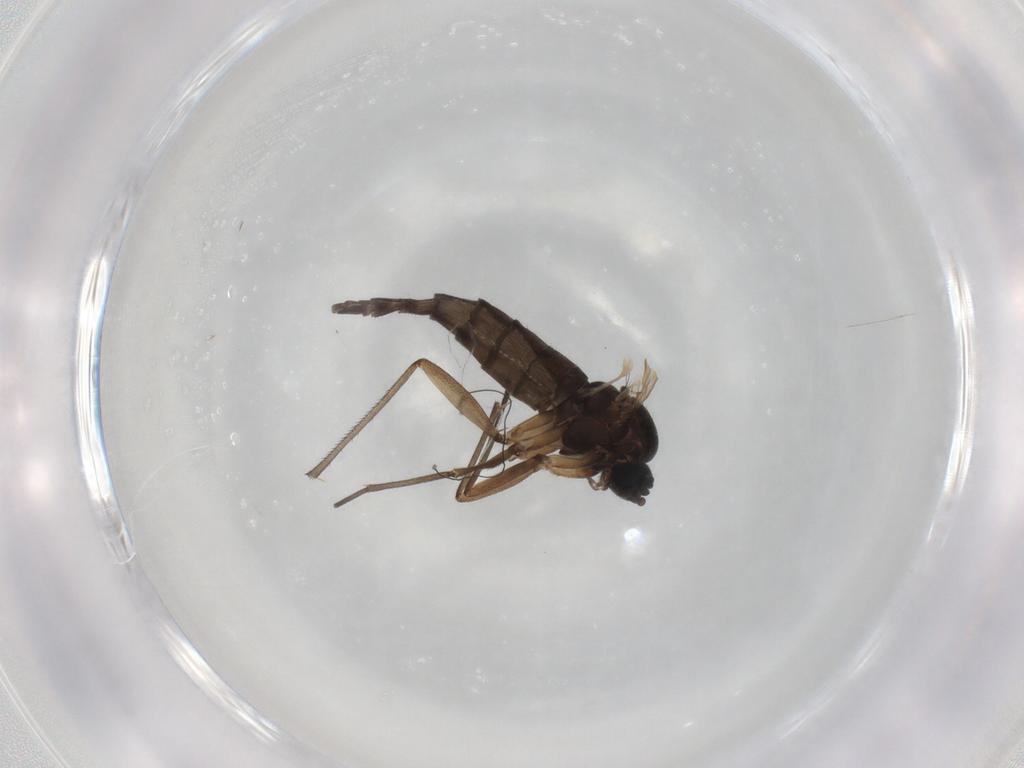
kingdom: Animalia
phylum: Arthropoda
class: Insecta
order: Diptera
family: Sciaridae
